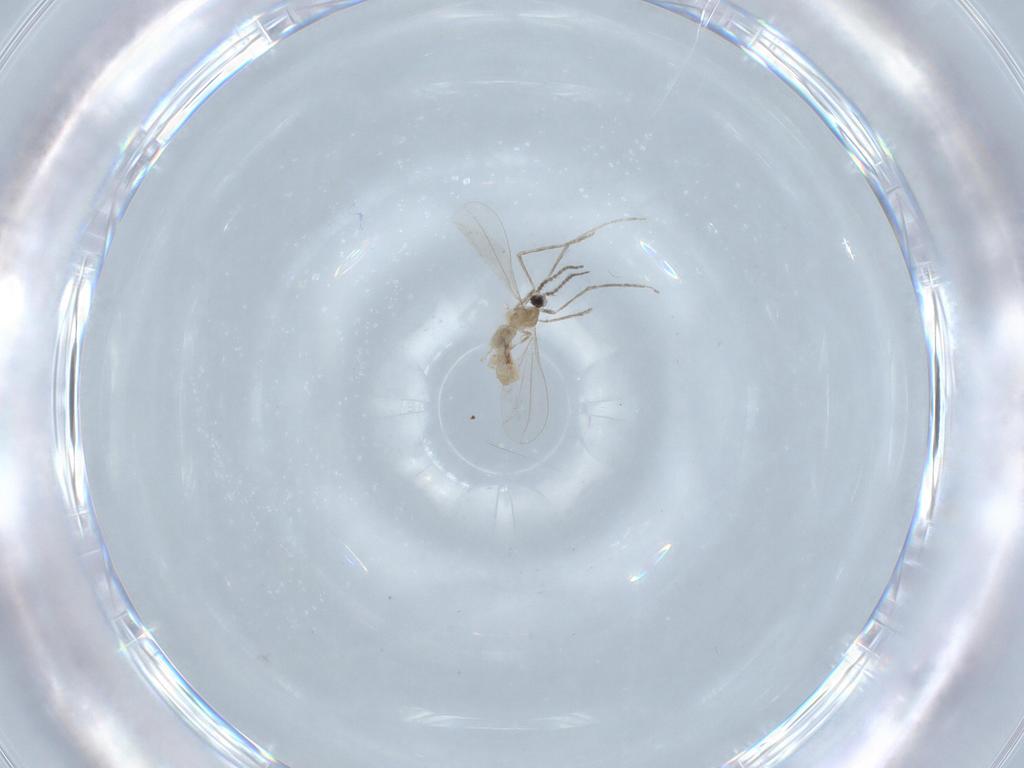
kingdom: Animalia
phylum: Arthropoda
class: Insecta
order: Diptera
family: Cecidomyiidae
